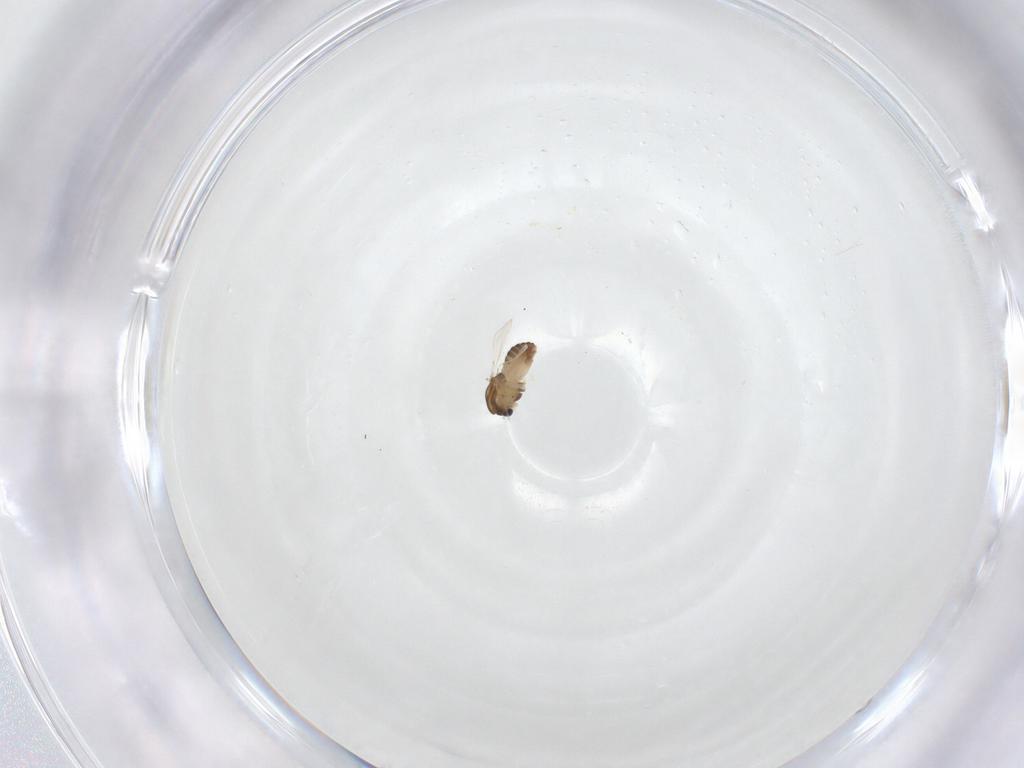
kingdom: Animalia
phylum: Arthropoda
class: Insecta
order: Diptera
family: Chironomidae
